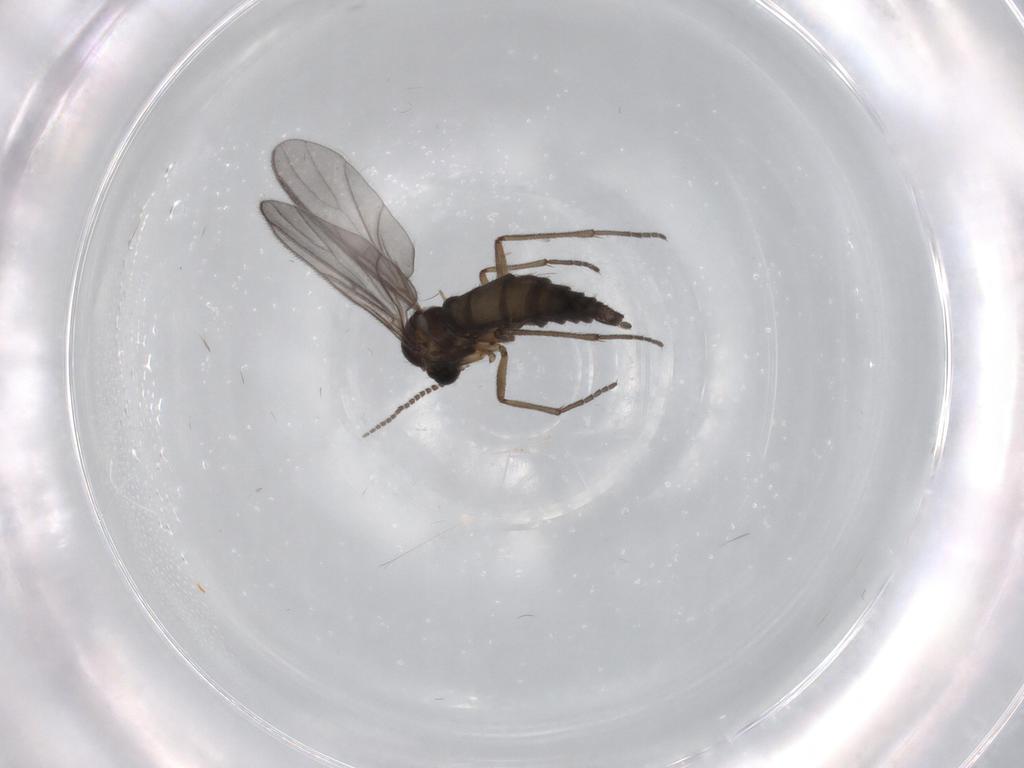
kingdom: Animalia
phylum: Arthropoda
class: Insecta
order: Diptera
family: Sciaridae
